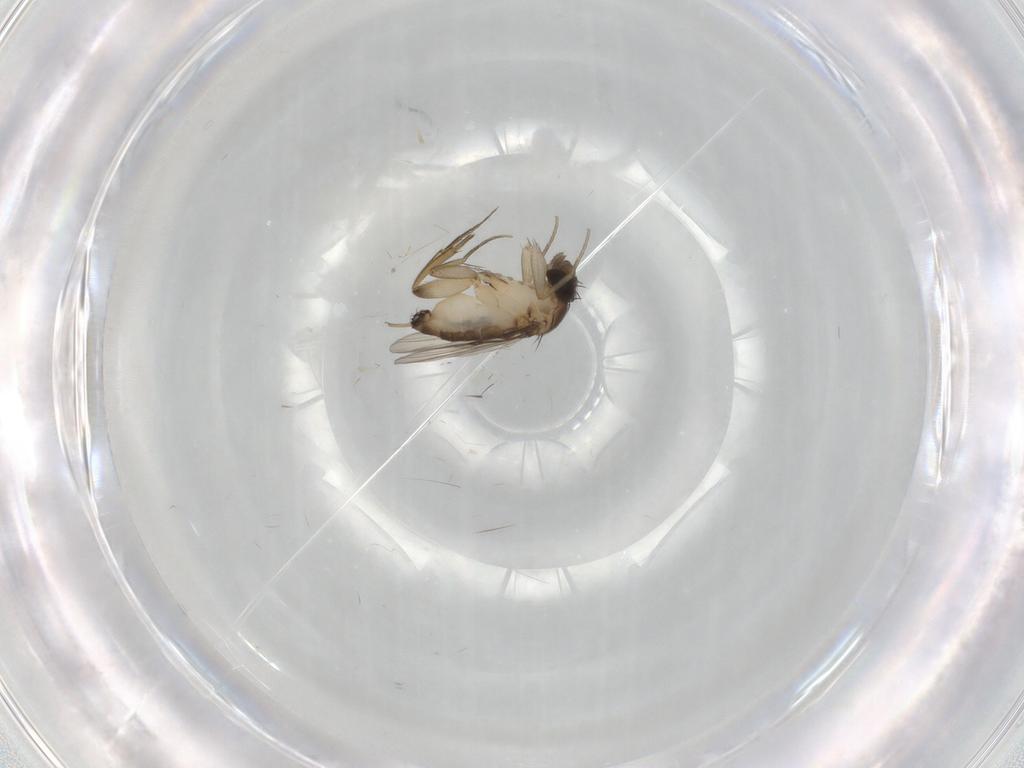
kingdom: Animalia
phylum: Arthropoda
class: Insecta
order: Diptera
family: Phoridae
